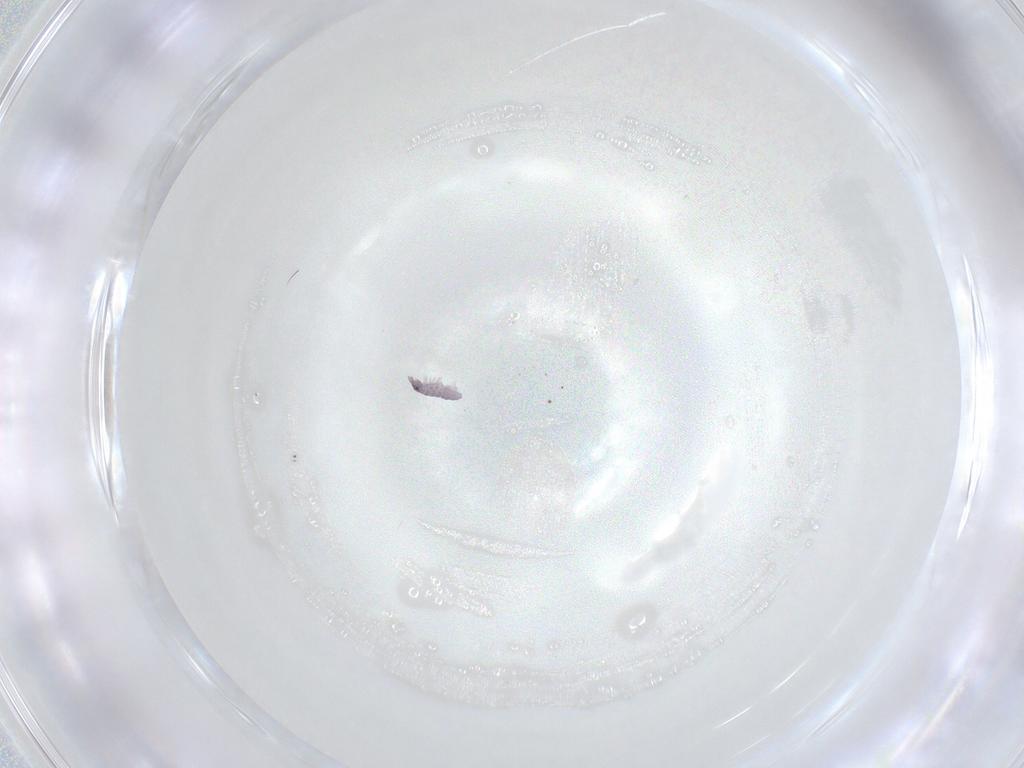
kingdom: Animalia
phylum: Arthropoda
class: Insecta
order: Diptera
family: Cecidomyiidae
